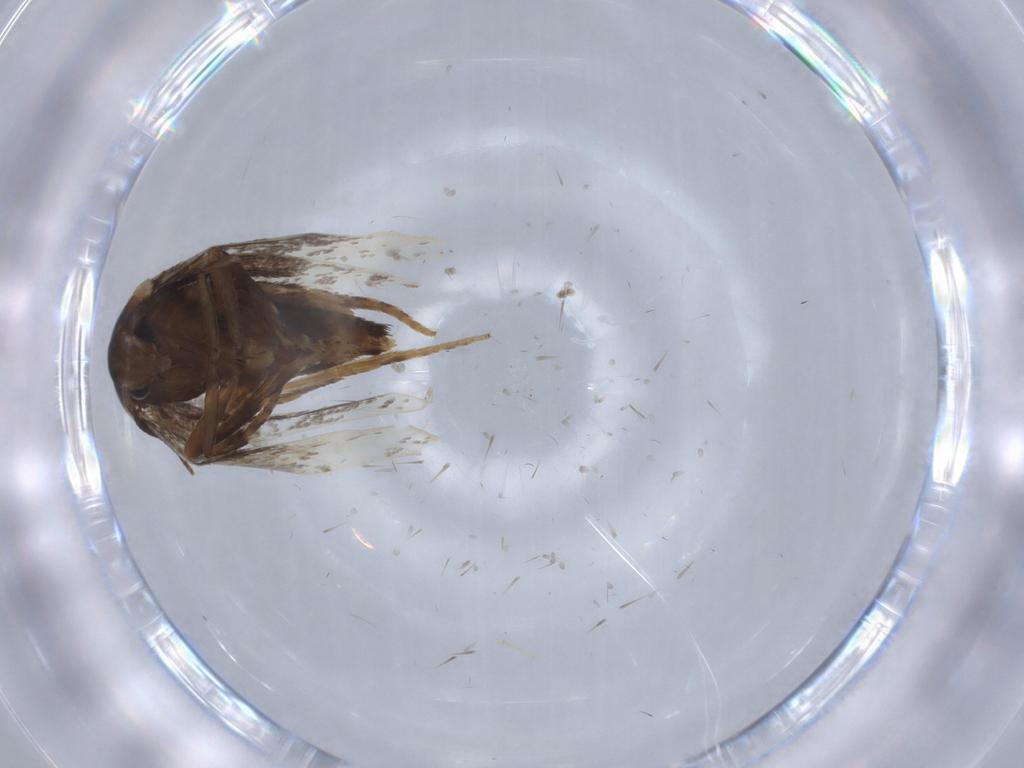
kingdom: Animalia
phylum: Arthropoda
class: Insecta
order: Lepidoptera
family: Elachistidae
